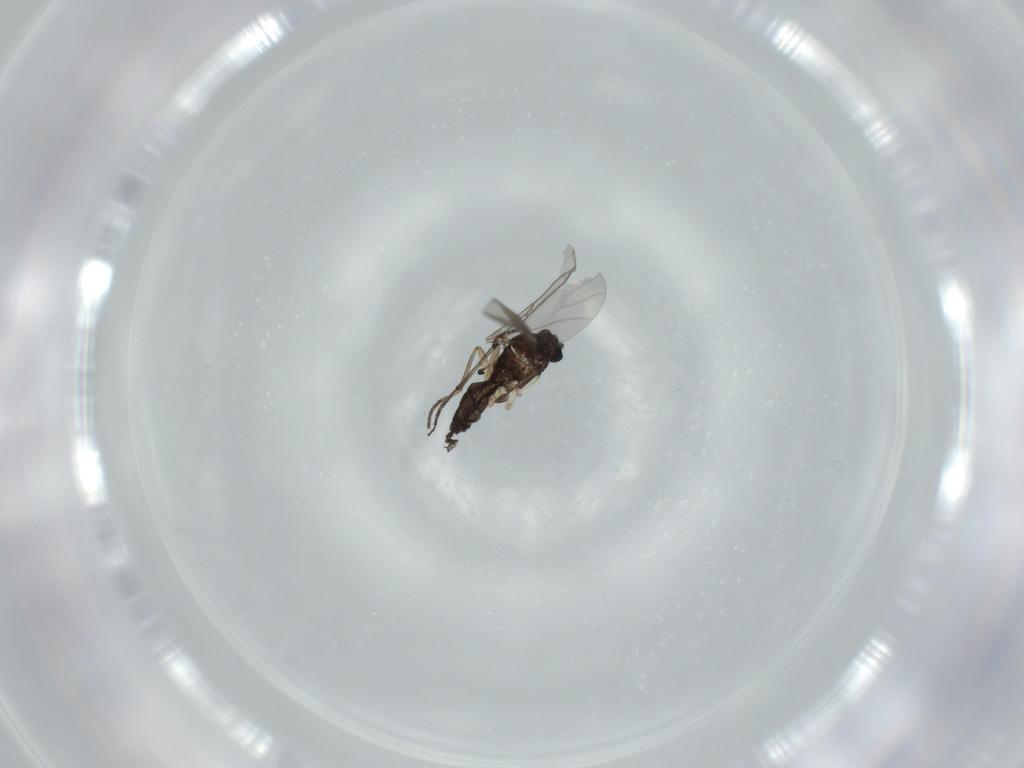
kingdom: Animalia
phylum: Arthropoda
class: Insecta
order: Diptera
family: Sciaridae
